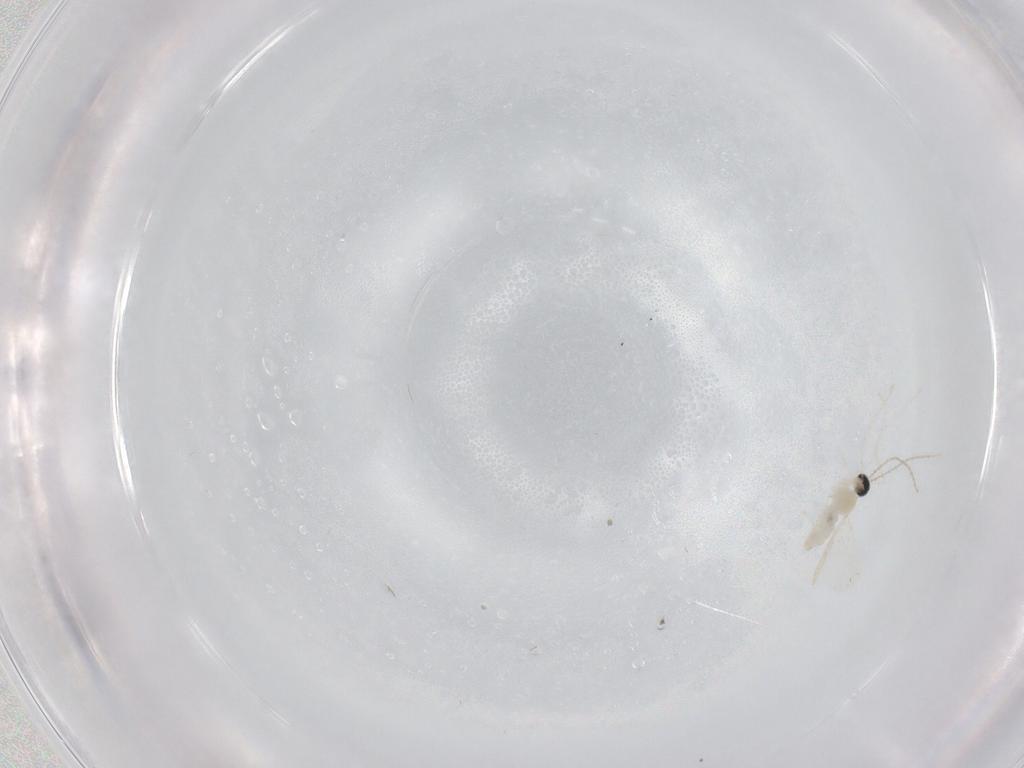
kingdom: Animalia
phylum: Arthropoda
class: Insecta
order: Diptera
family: Cecidomyiidae
